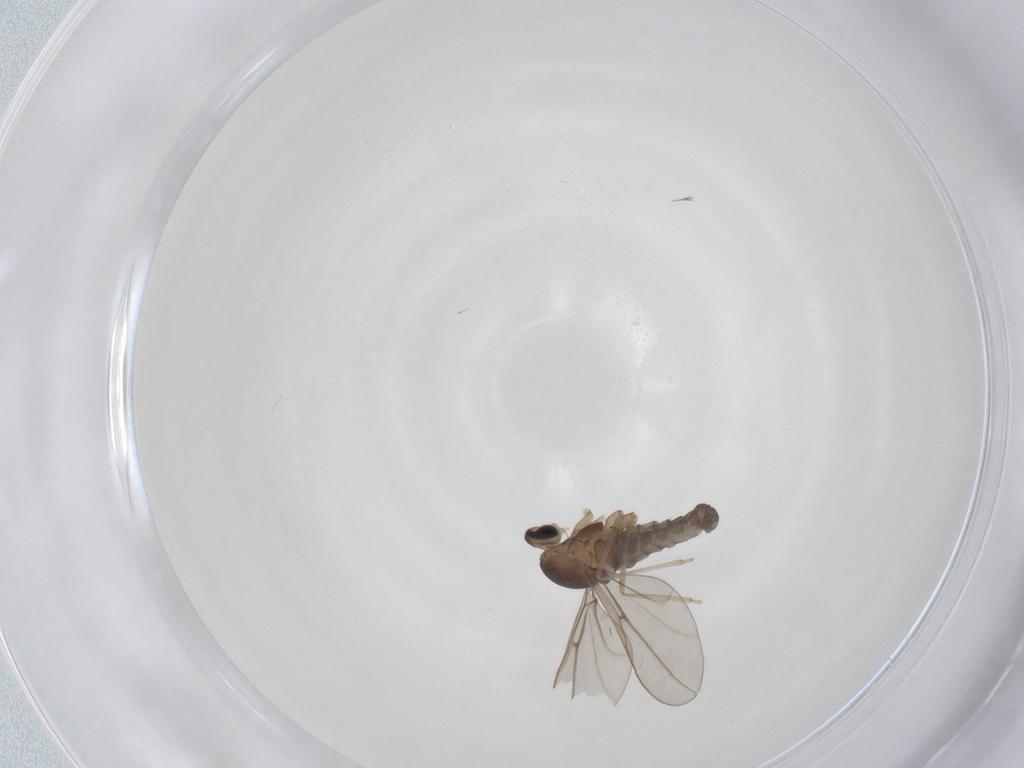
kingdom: Animalia
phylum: Arthropoda
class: Insecta
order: Diptera
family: Cecidomyiidae
